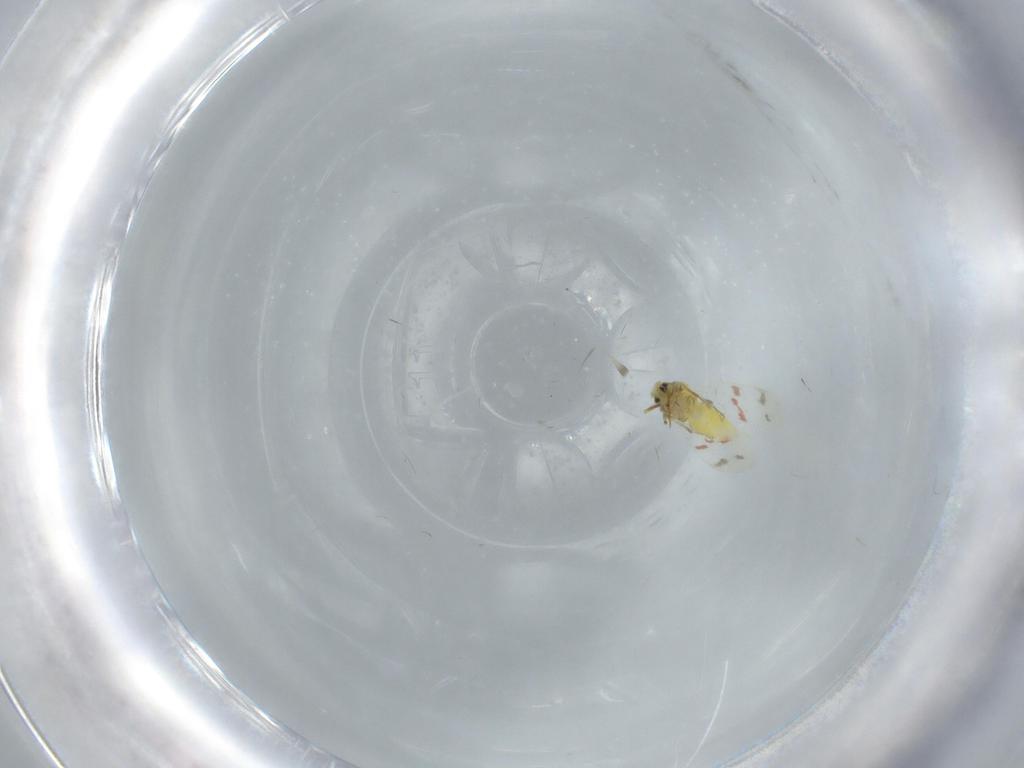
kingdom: Animalia
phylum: Arthropoda
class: Insecta
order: Hemiptera
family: Aleyrodidae
